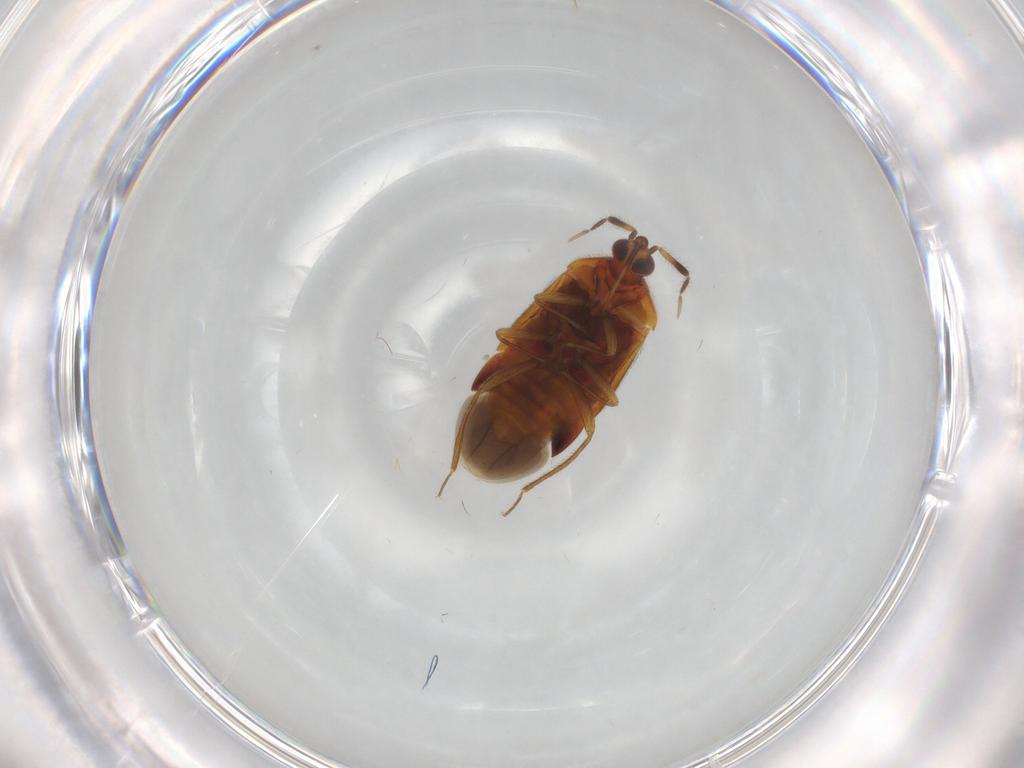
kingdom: Animalia
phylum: Arthropoda
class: Insecta
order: Hemiptera
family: Anthocoridae
